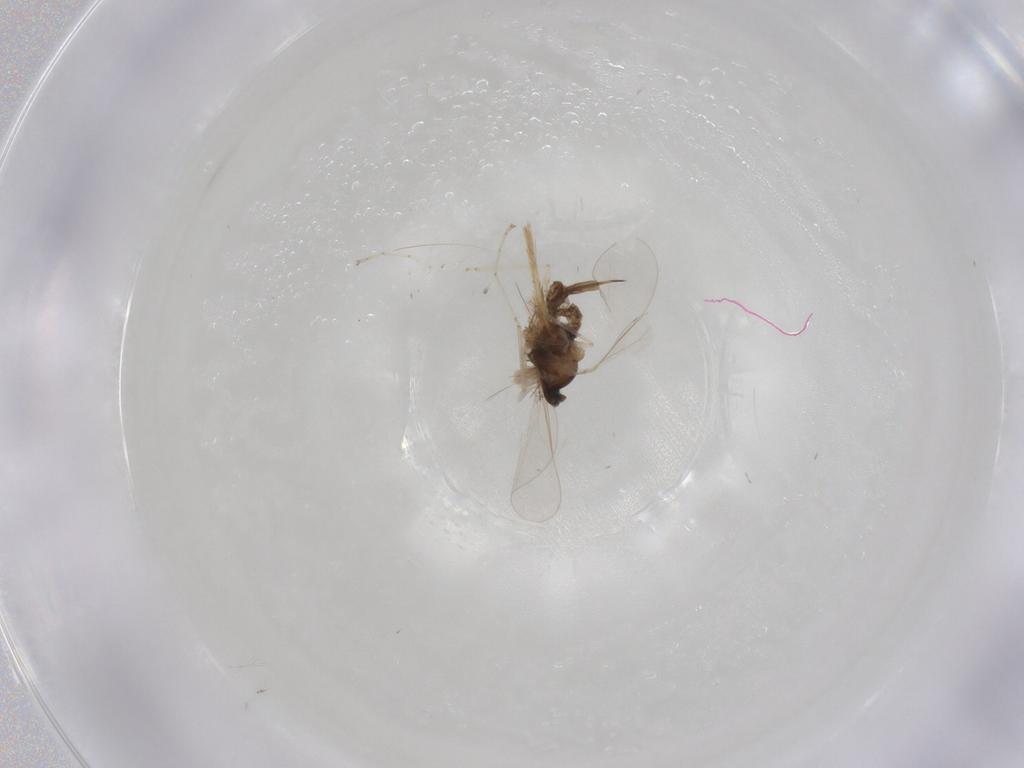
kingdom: Animalia
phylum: Arthropoda
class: Insecta
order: Diptera
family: Cecidomyiidae
